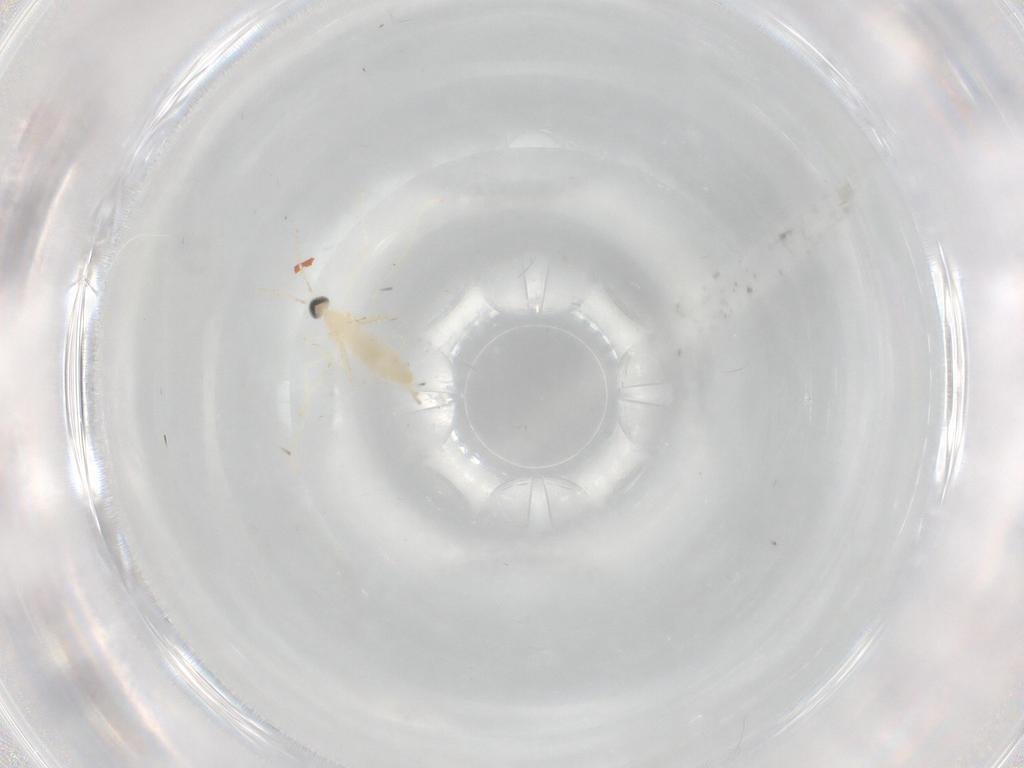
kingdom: Animalia
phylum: Arthropoda
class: Insecta
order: Diptera
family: Cecidomyiidae
